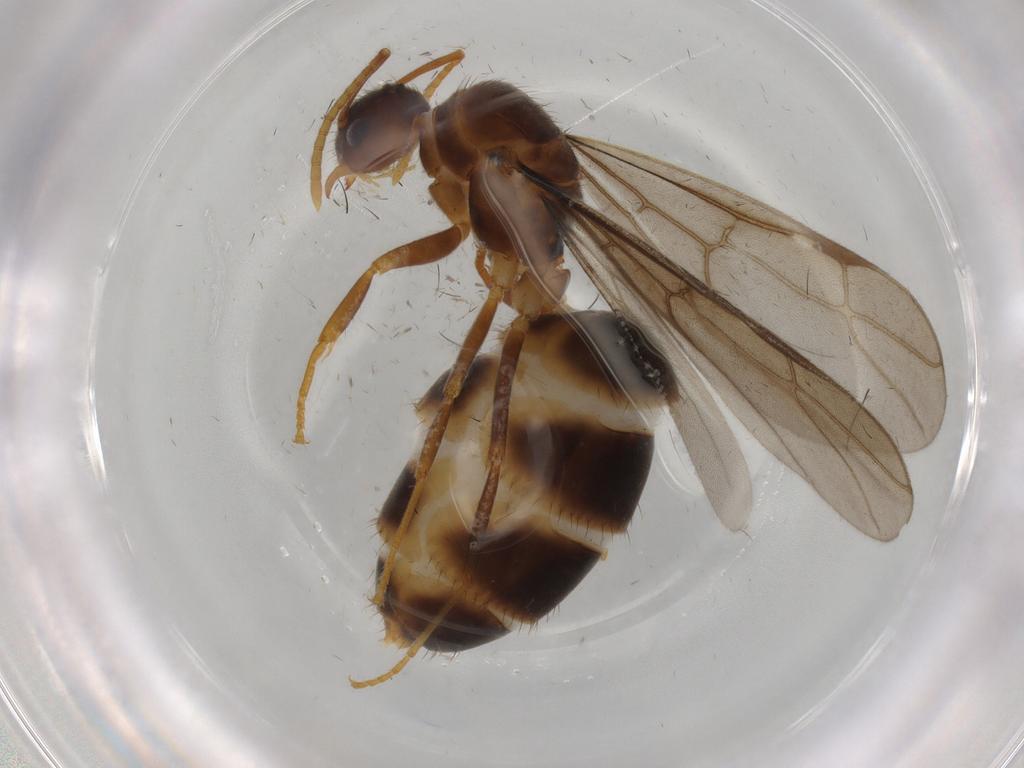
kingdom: Animalia
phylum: Arthropoda
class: Insecta
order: Hymenoptera
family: Formicidae
